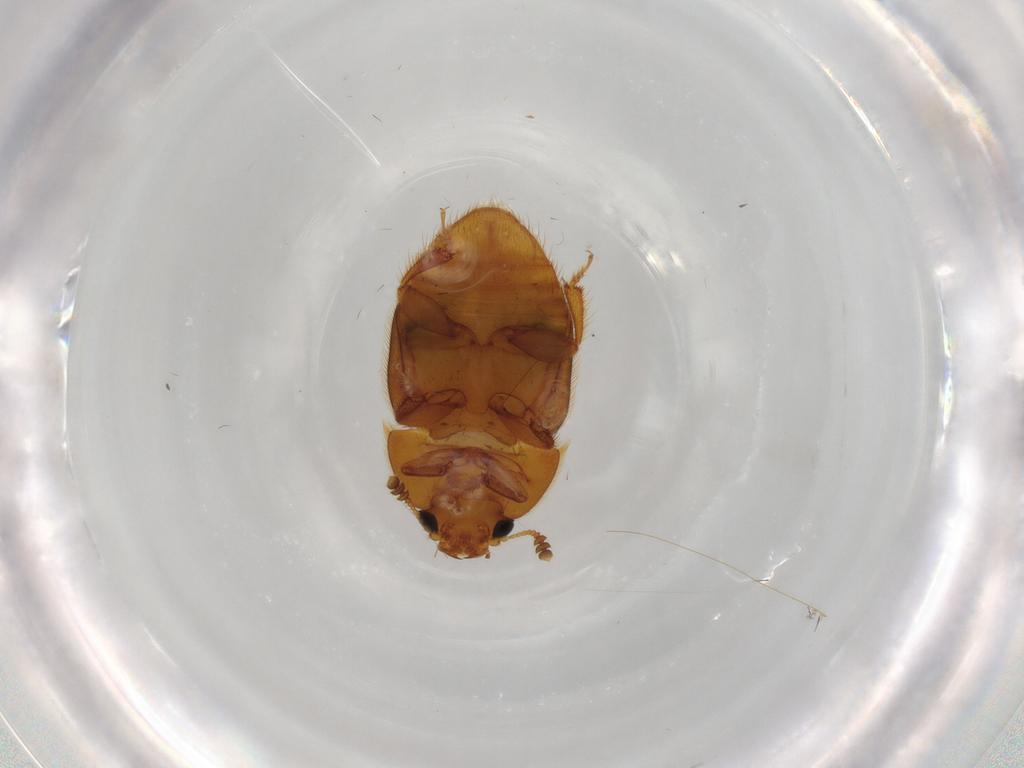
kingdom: Animalia
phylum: Arthropoda
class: Insecta
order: Coleoptera
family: Nitidulidae
